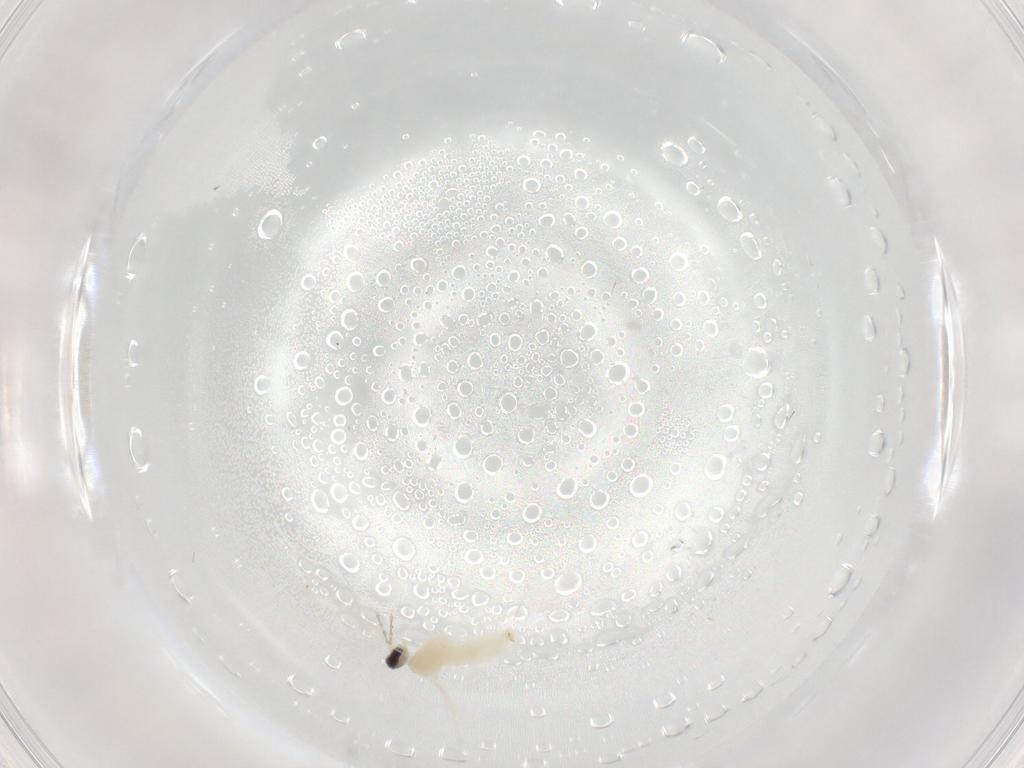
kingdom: Animalia
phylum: Arthropoda
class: Insecta
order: Diptera
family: Cecidomyiidae
